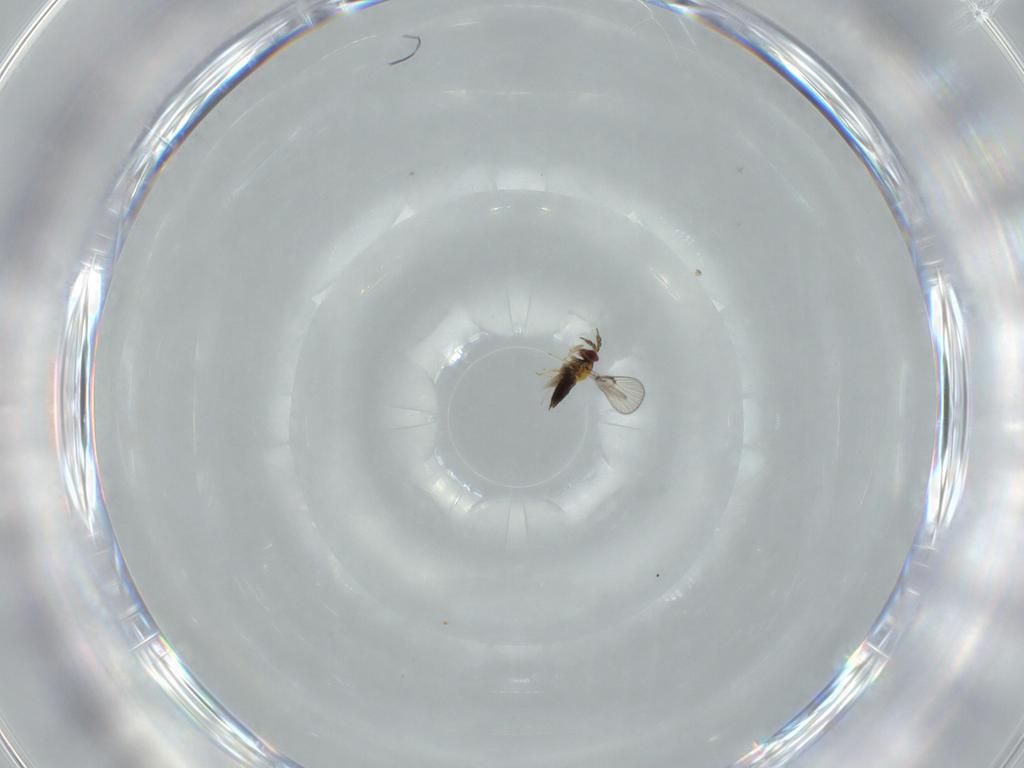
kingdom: Animalia
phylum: Arthropoda
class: Insecta
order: Hymenoptera
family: Trichogrammatidae
